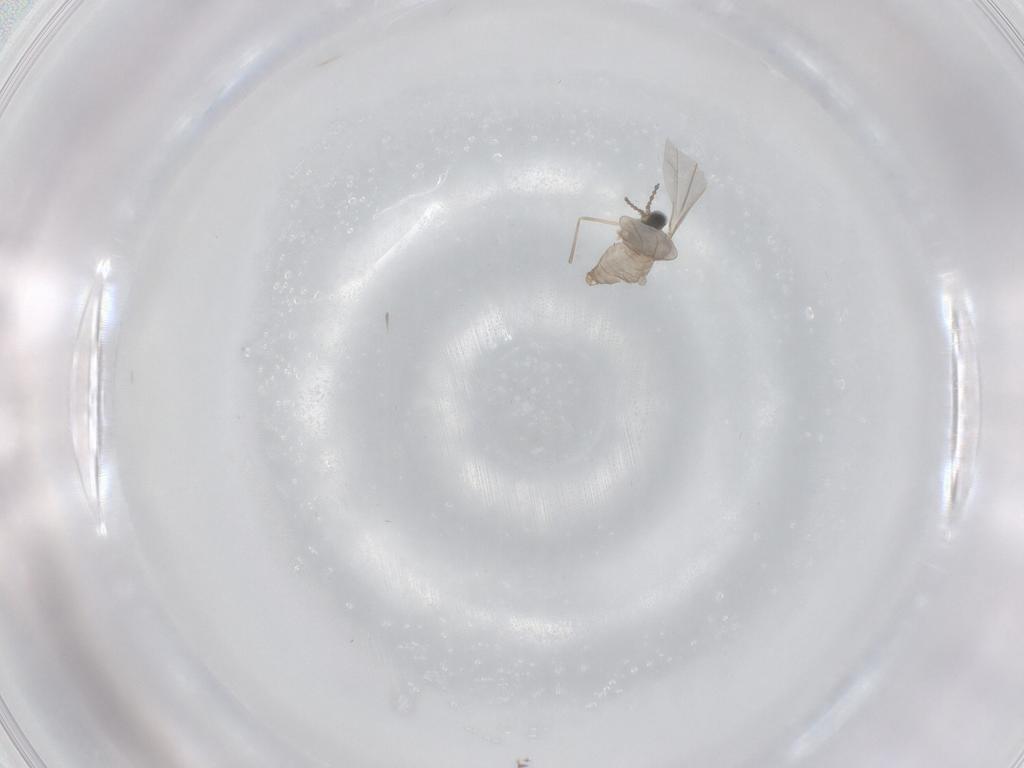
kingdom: Animalia
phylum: Arthropoda
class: Insecta
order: Diptera
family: Cecidomyiidae
